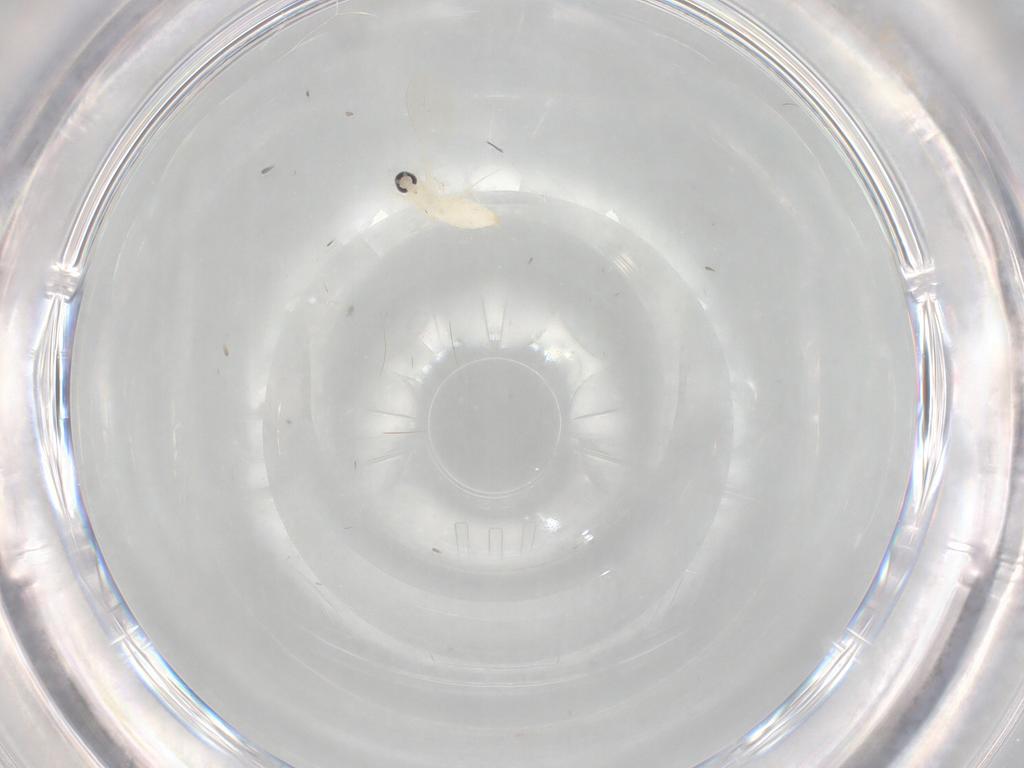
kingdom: Animalia
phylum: Arthropoda
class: Insecta
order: Diptera
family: Cecidomyiidae
